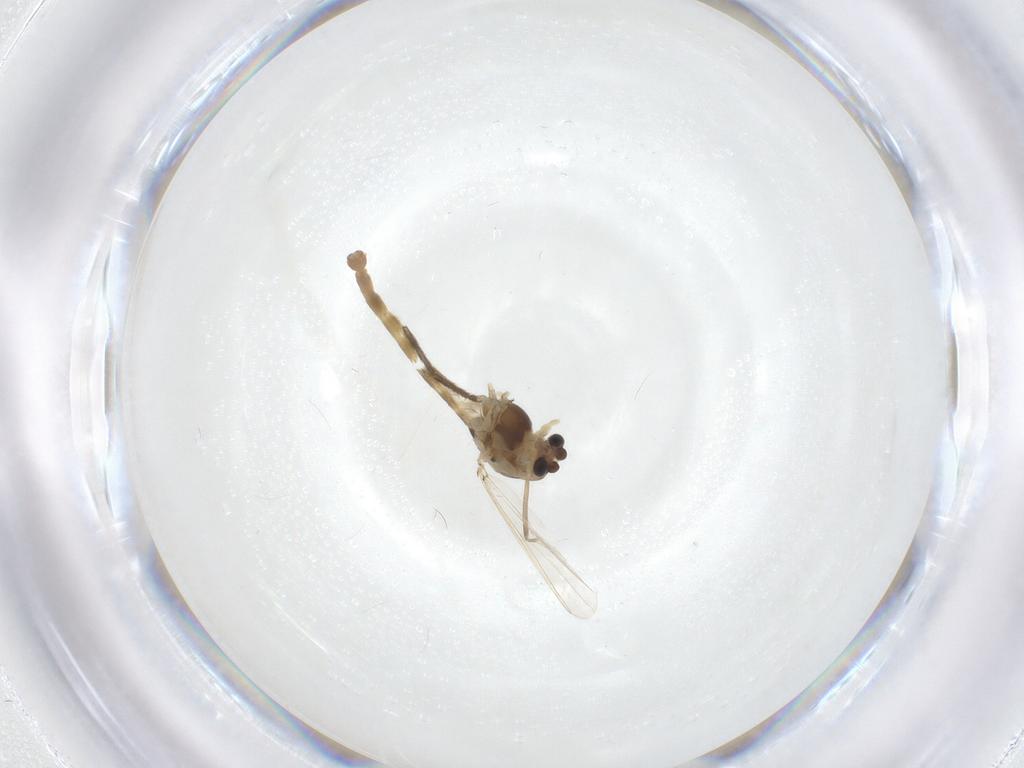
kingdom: Animalia
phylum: Arthropoda
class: Insecta
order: Diptera
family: Chironomidae
